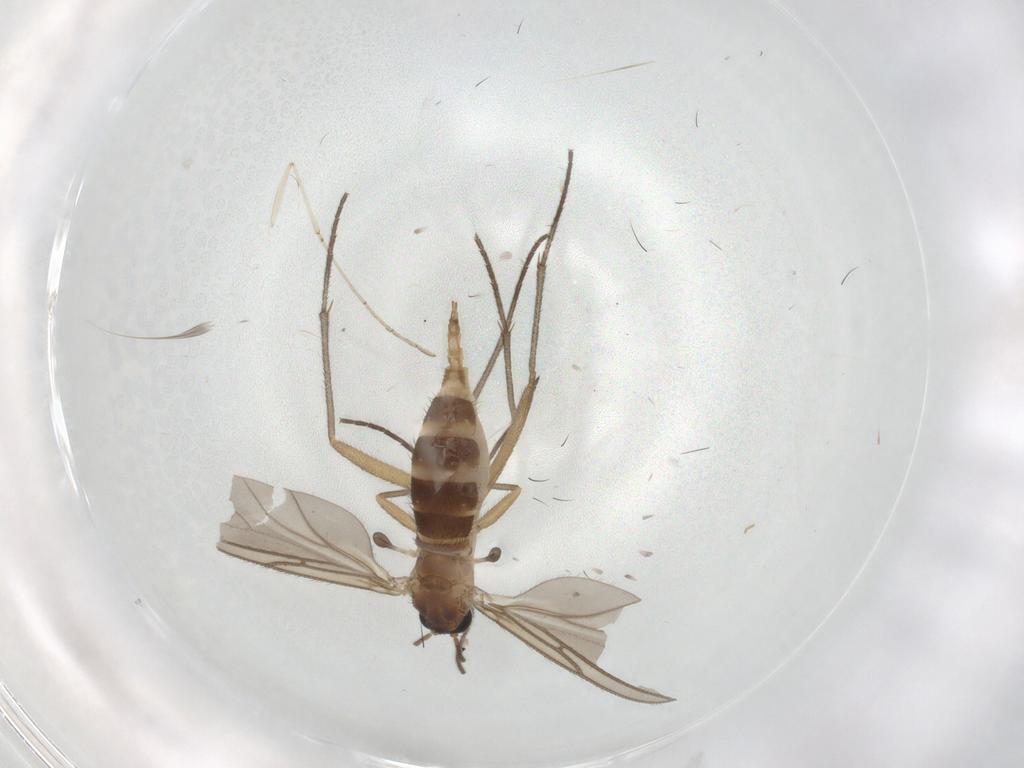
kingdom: Animalia
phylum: Arthropoda
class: Insecta
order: Diptera
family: Sciaridae
